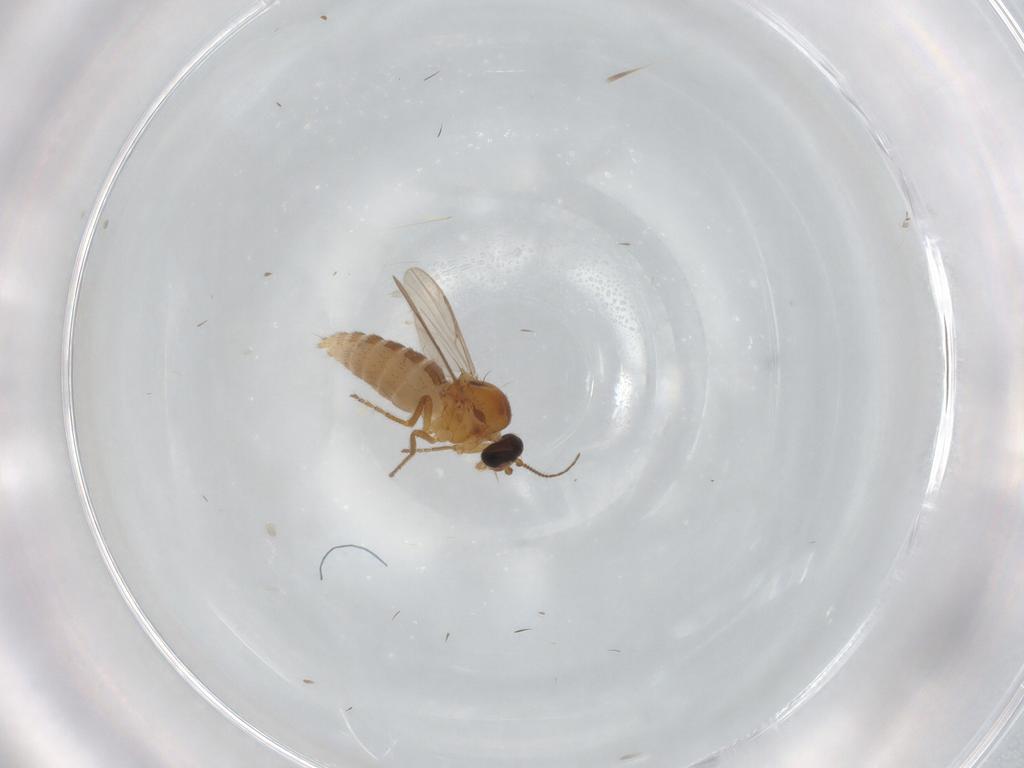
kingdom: Animalia
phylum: Arthropoda
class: Insecta
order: Diptera
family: Ceratopogonidae
